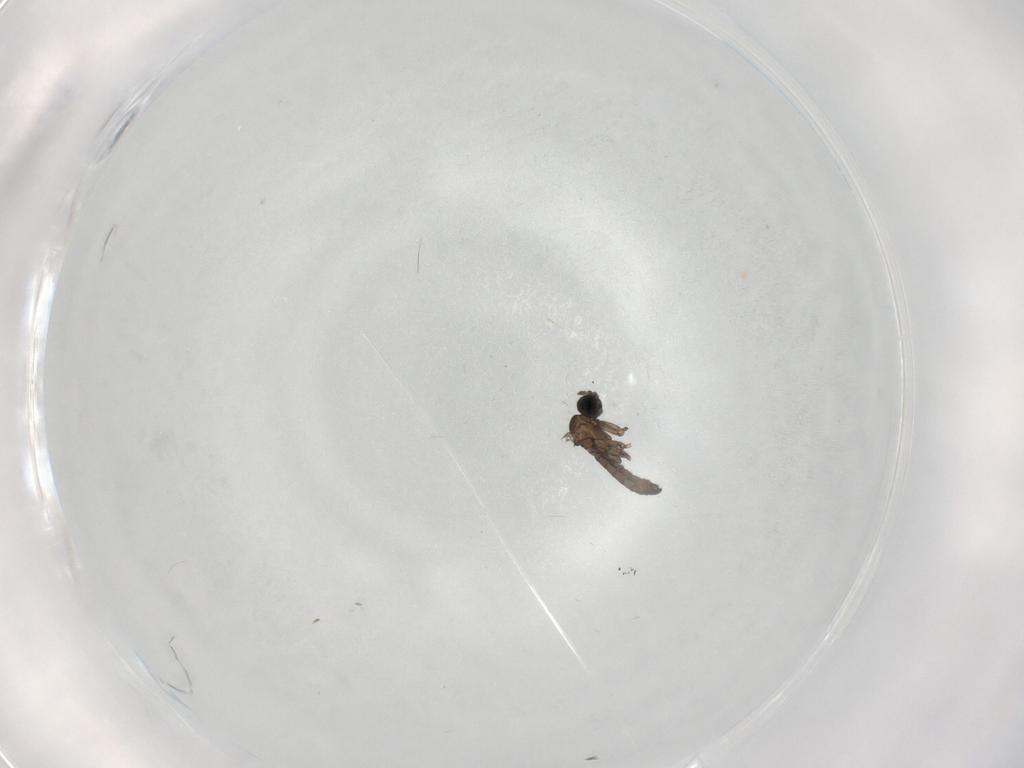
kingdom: Animalia
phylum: Arthropoda
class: Insecta
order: Diptera
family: Sciaridae
